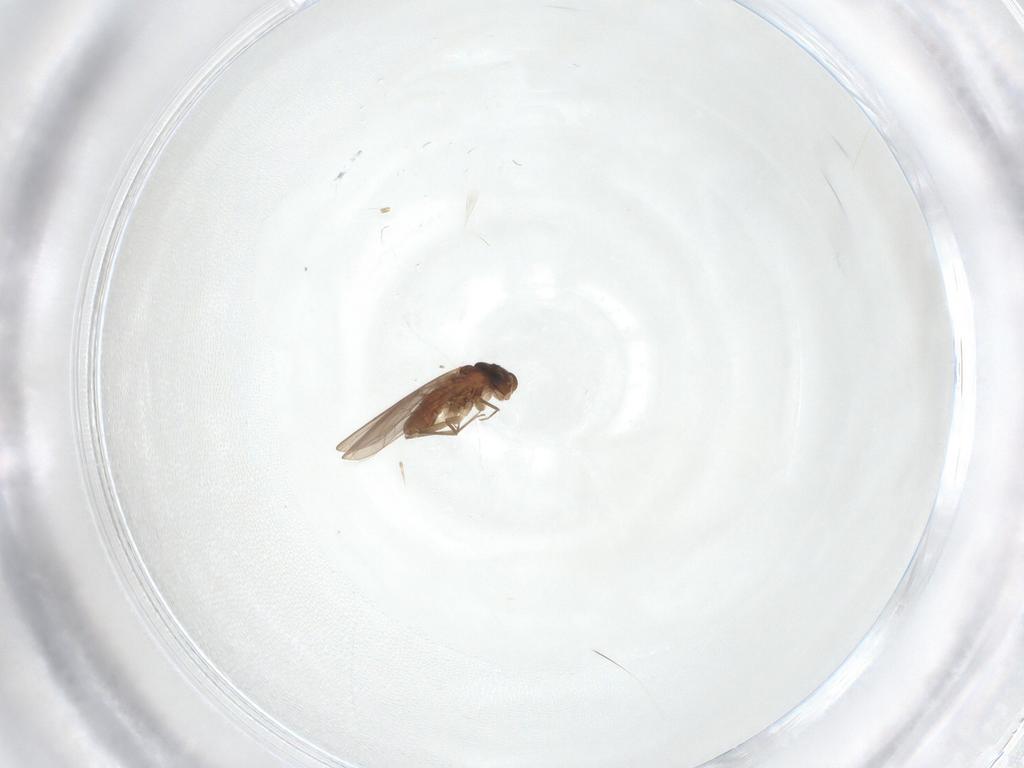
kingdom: Animalia
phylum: Arthropoda
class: Insecta
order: Psocodea
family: Lepidopsocidae
